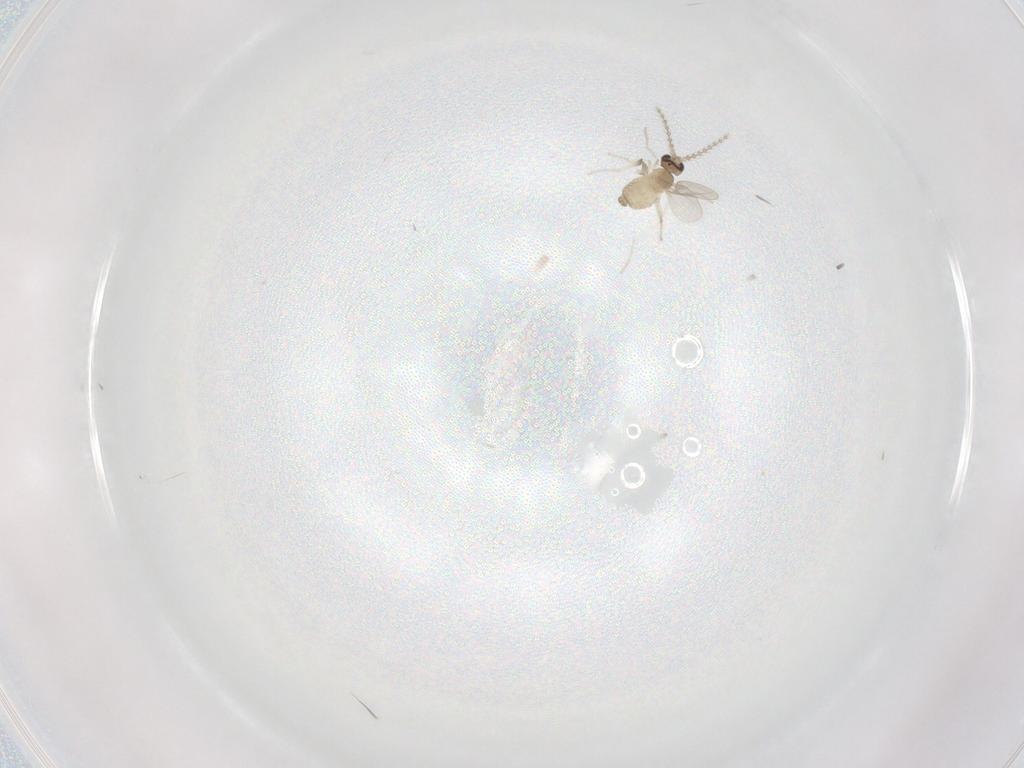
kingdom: Animalia
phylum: Arthropoda
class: Insecta
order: Diptera
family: Cecidomyiidae
